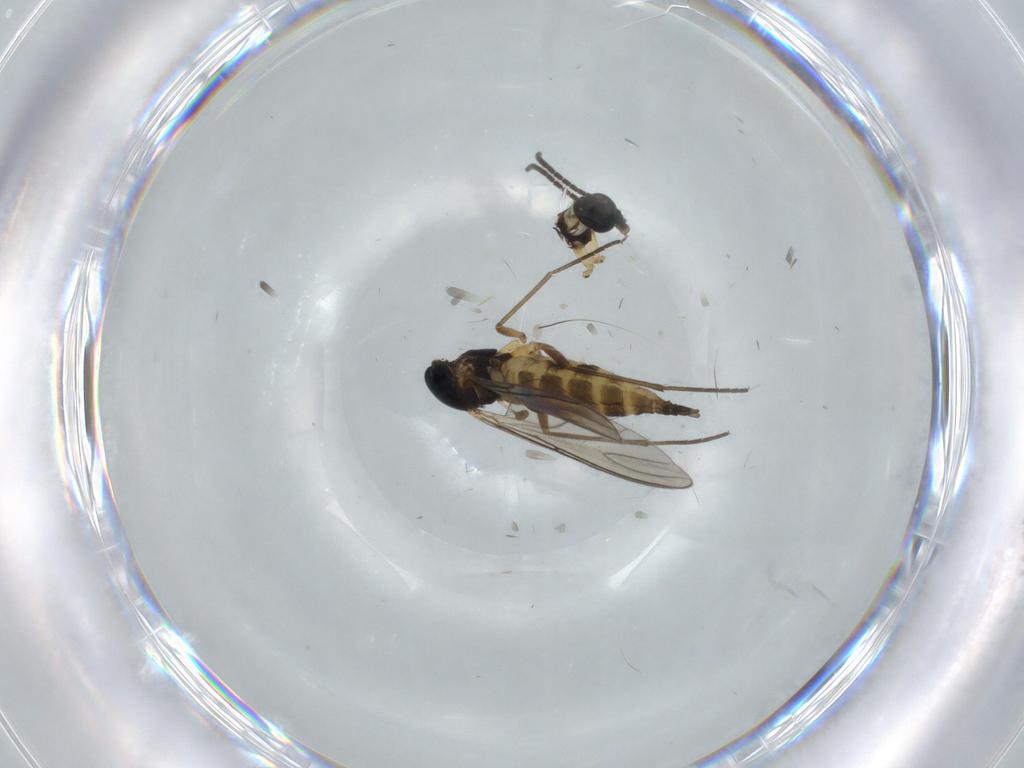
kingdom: Animalia
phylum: Arthropoda
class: Insecta
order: Diptera
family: Sciaridae
